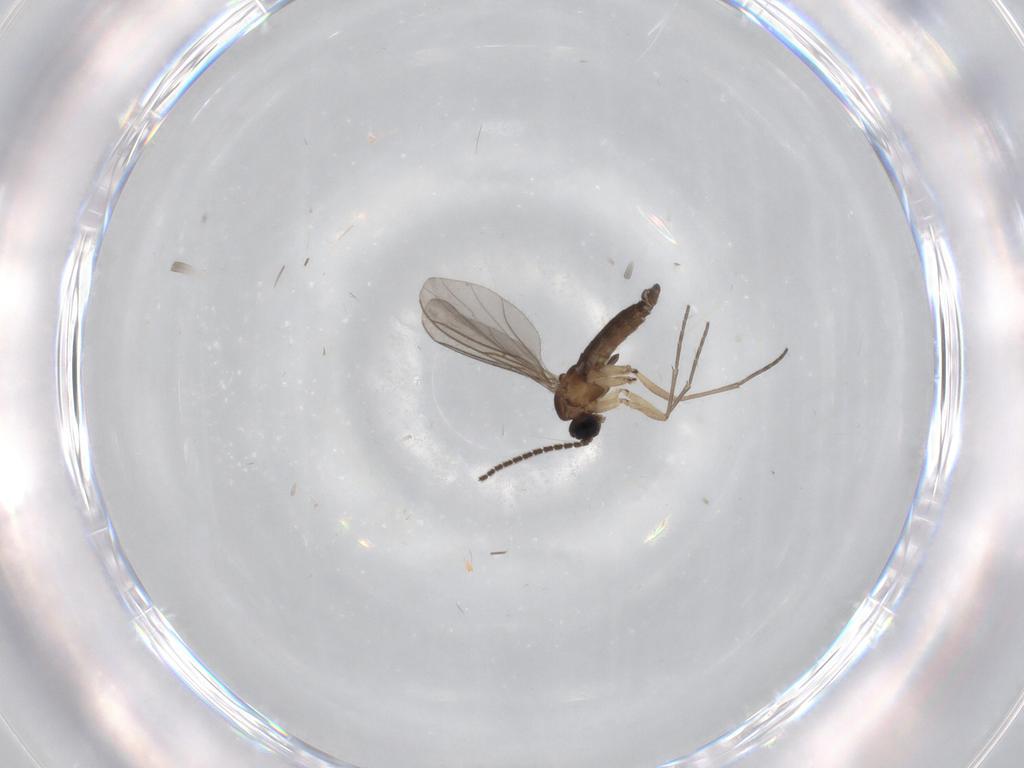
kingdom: Animalia
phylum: Arthropoda
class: Insecta
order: Diptera
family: Sciaridae
